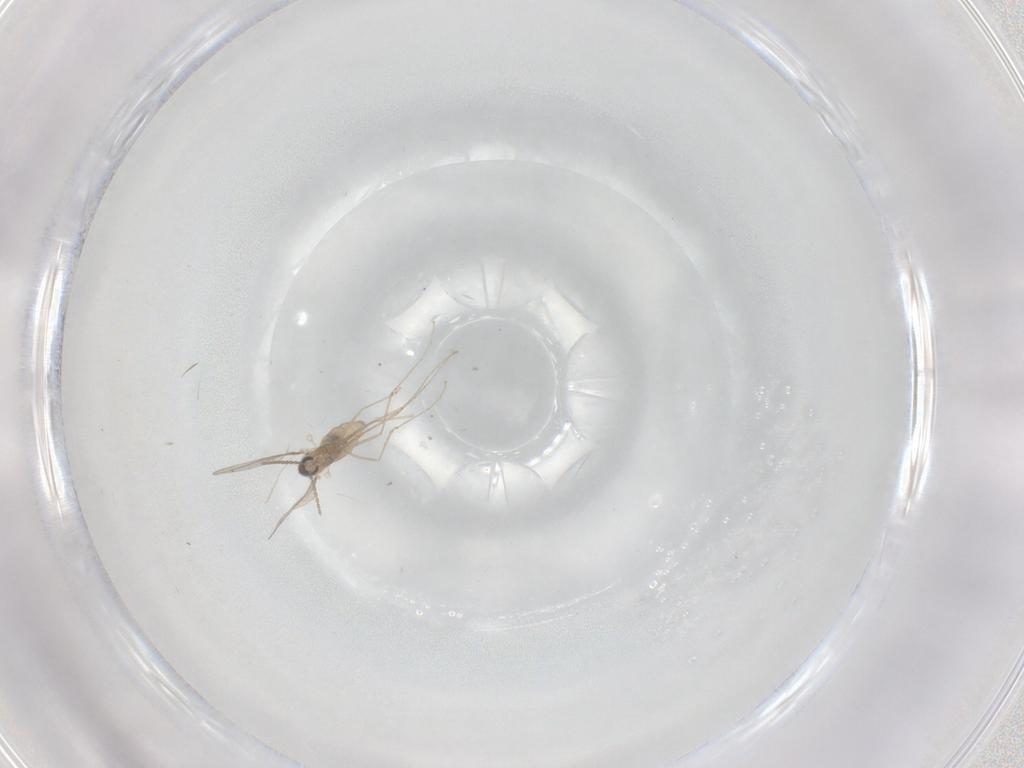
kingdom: Animalia
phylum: Arthropoda
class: Insecta
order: Diptera
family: Cecidomyiidae
